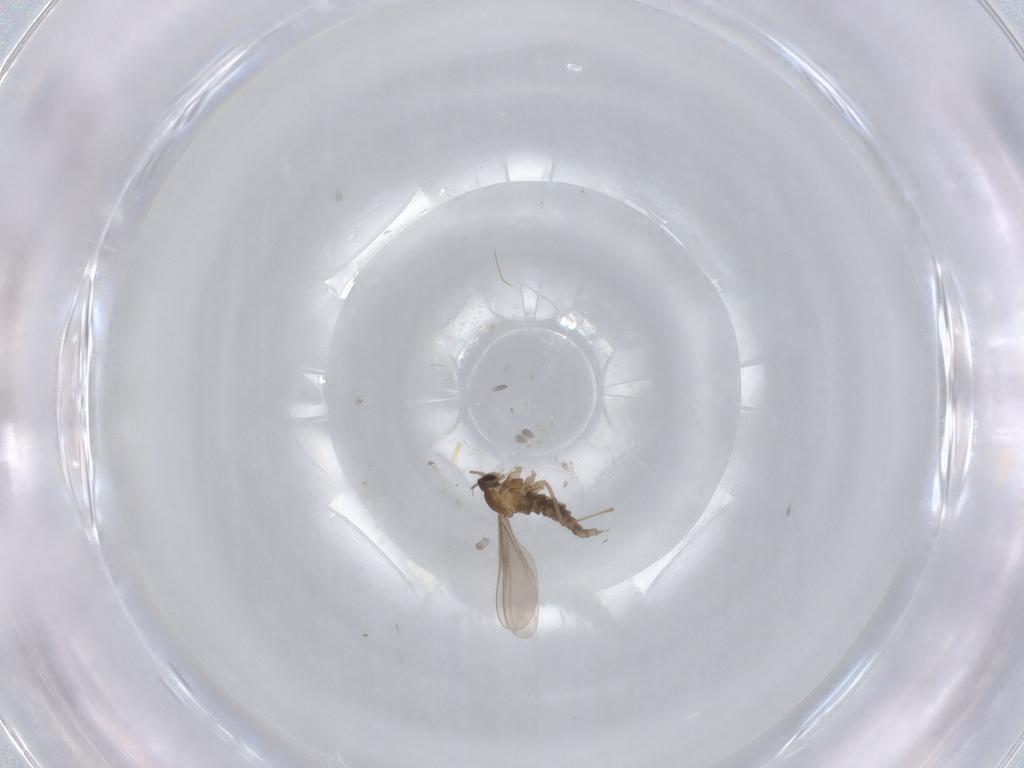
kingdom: Animalia
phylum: Arthropoda
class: Insecta
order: Diptera
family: Cecidomyiidae
